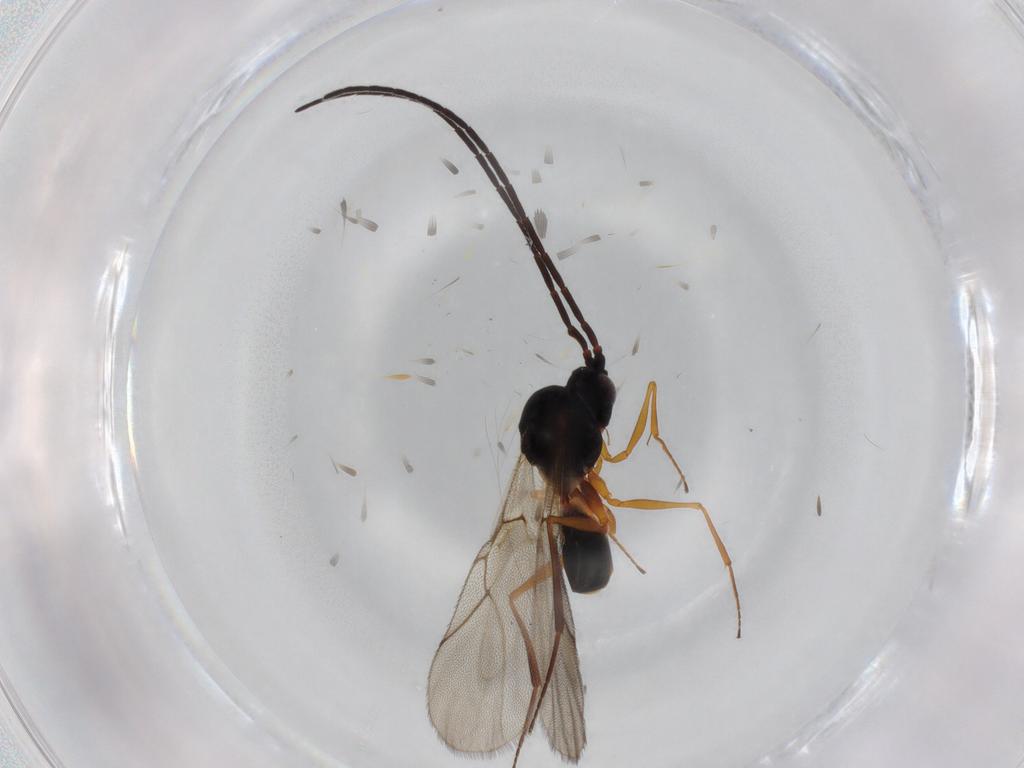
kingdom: Animalia
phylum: Arthropoda
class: Insecta
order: Hymenoptera
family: Figitidae
